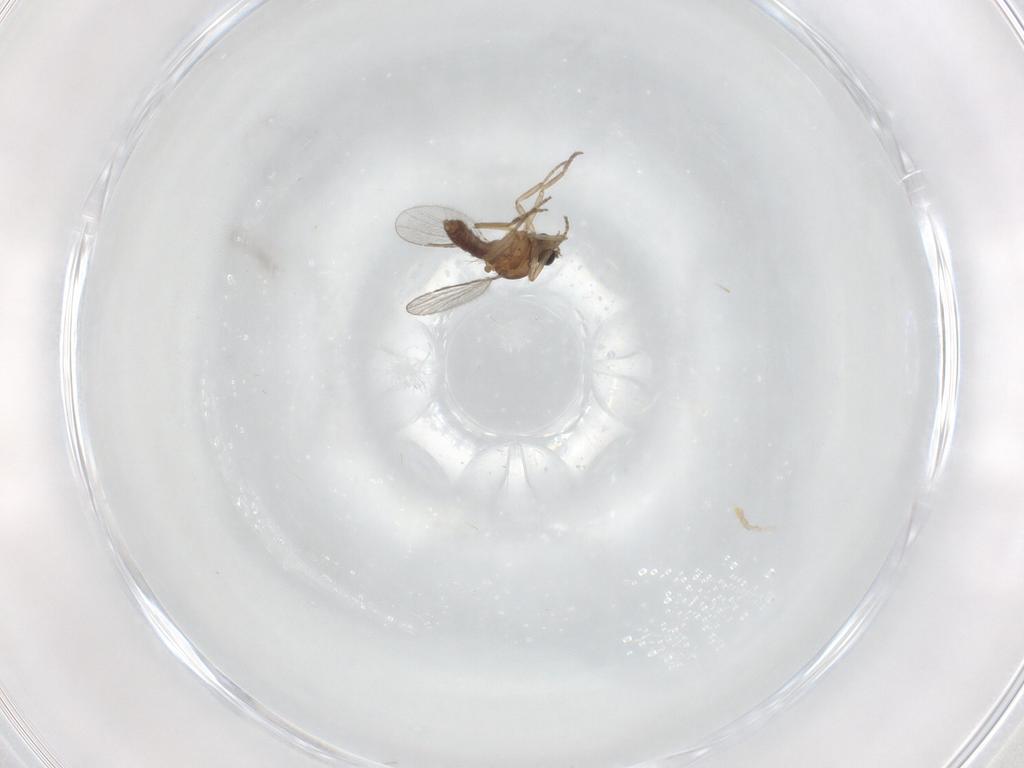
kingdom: Animalia
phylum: Arthropoda
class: Insecta
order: Diptera
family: Ceratopogonidae
